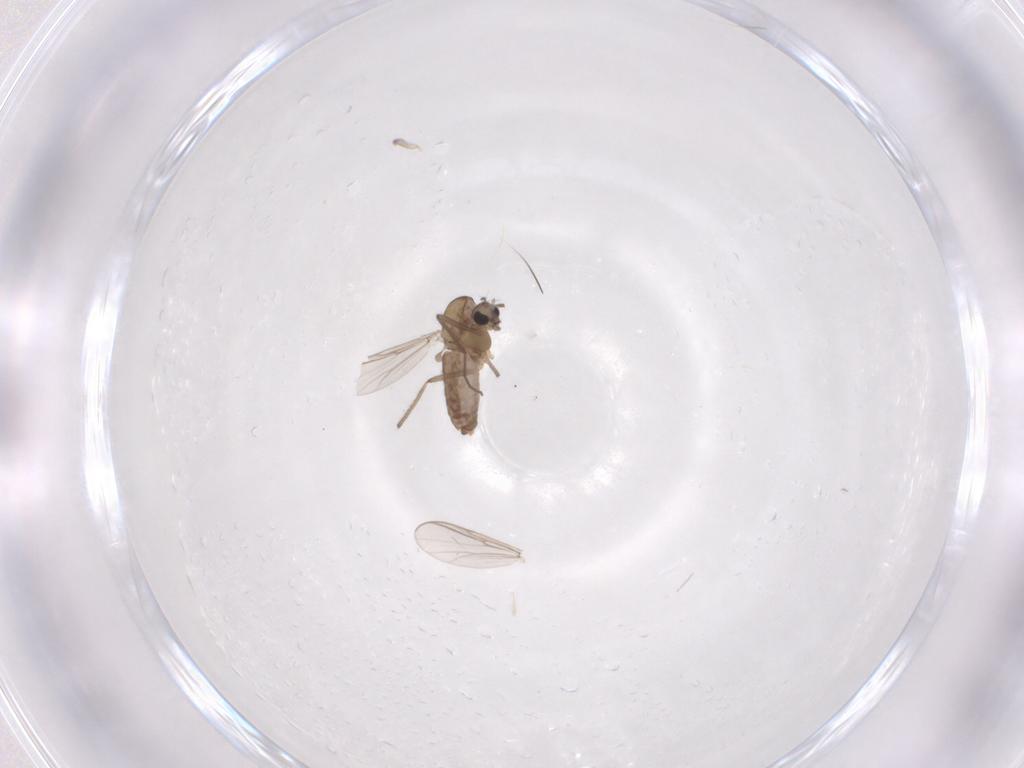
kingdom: Animalia
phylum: Arthropoda
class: Insecta
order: Diptera
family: Chironomidae
